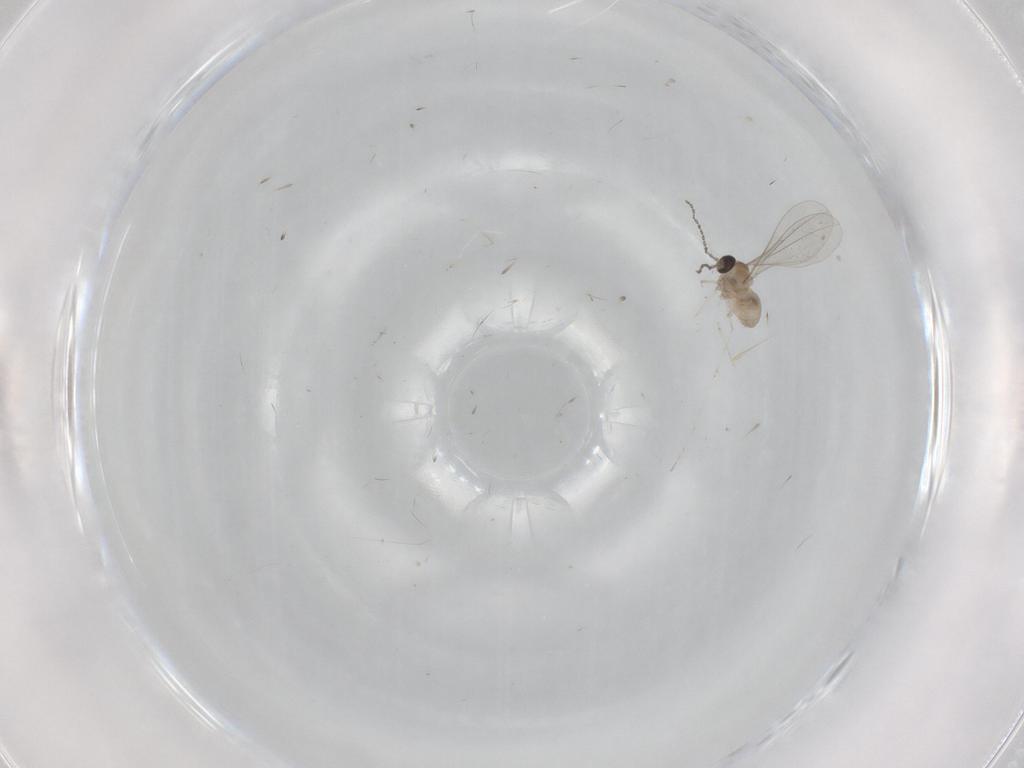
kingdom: Animalia
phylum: Arthropoda
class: Insecta
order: Diptera
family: Cecidomyiidae
